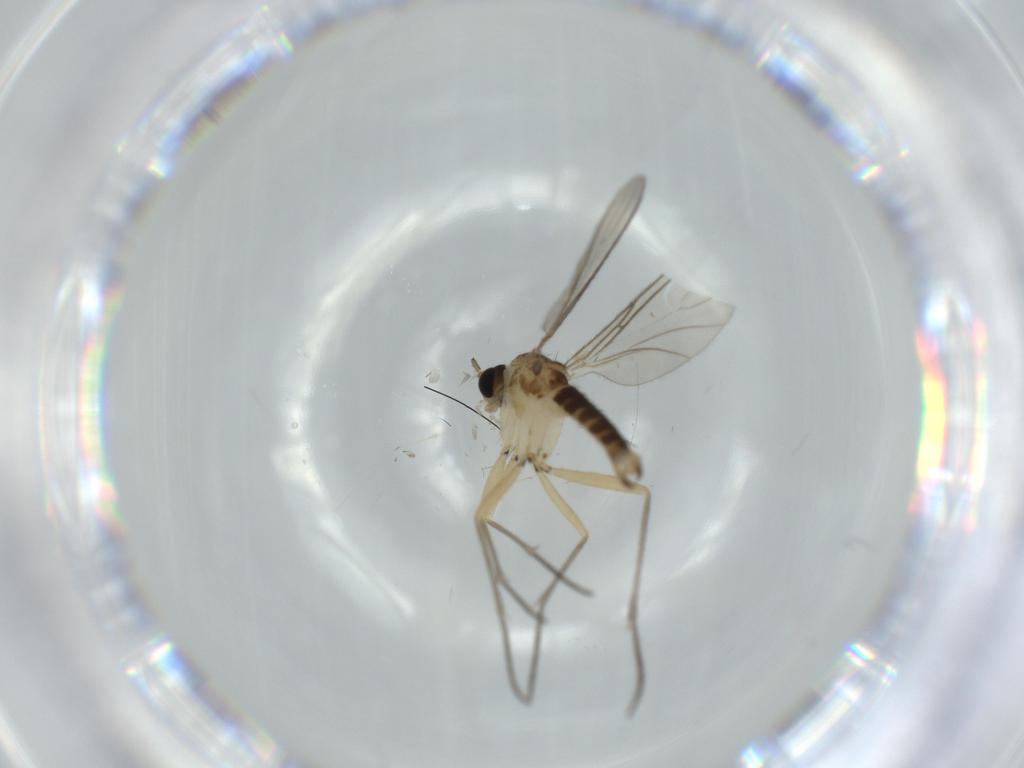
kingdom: Animalia
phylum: Arthropoda
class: Insecta
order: Diptera
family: Sciaridae
